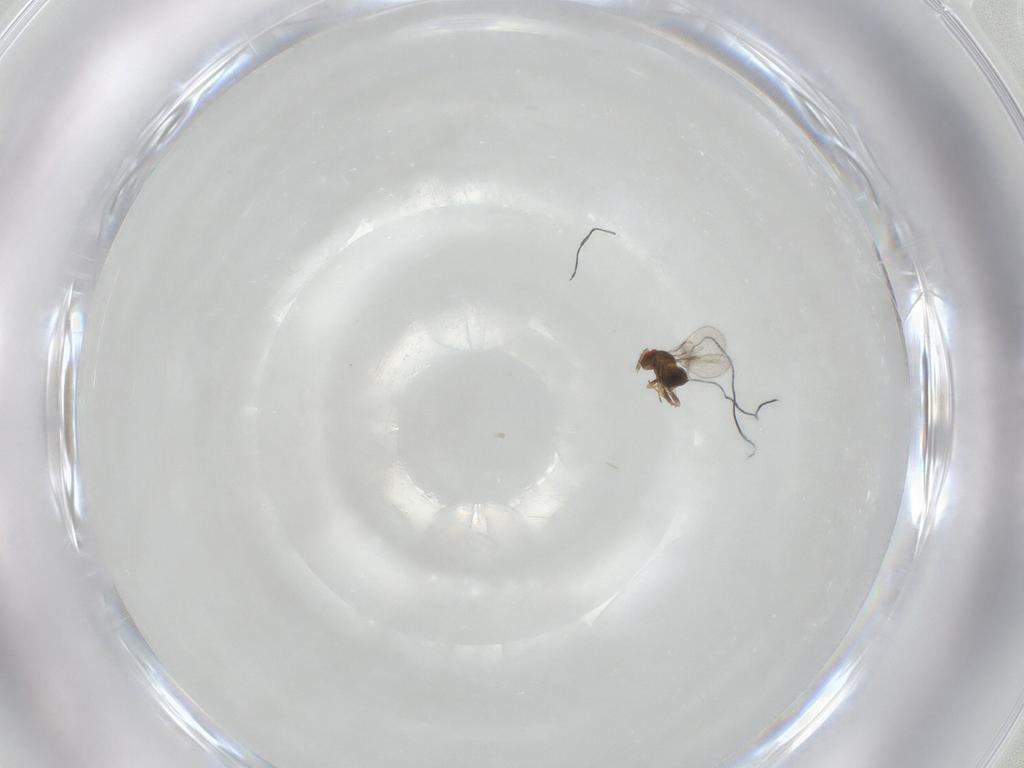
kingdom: Animalia
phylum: Arthropoda
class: Insecta
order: Hymenoptera
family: Trichogrammatidae
